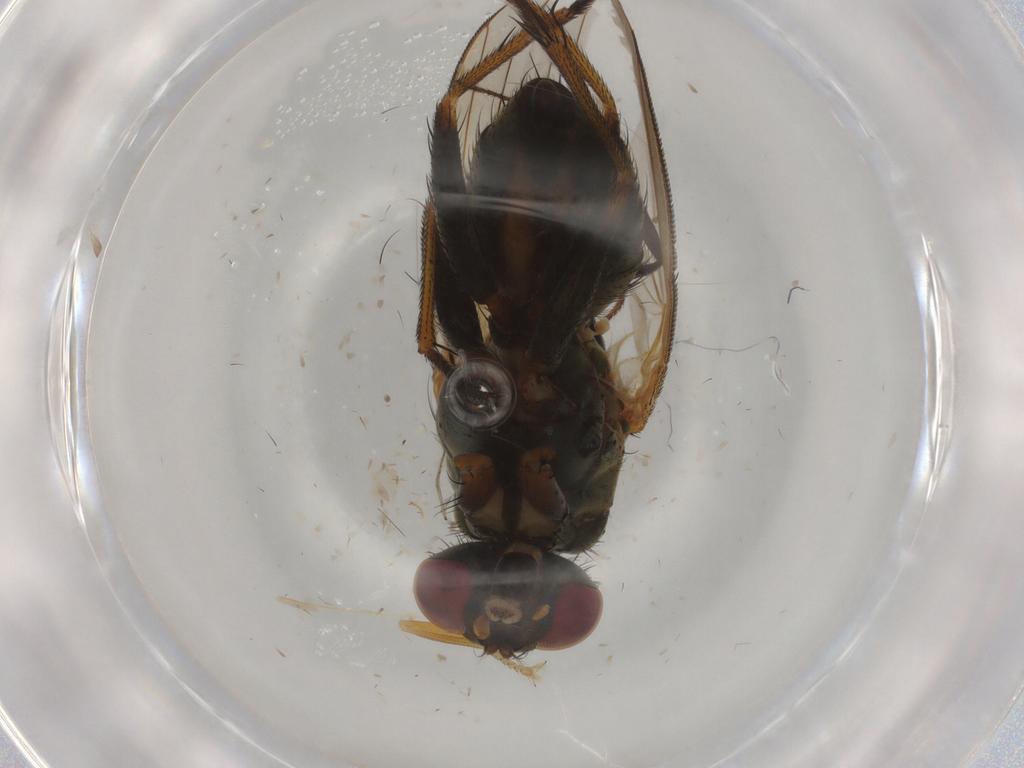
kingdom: Animalia
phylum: Arthropoda
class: Insecta
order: Diptera
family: Muscidae
